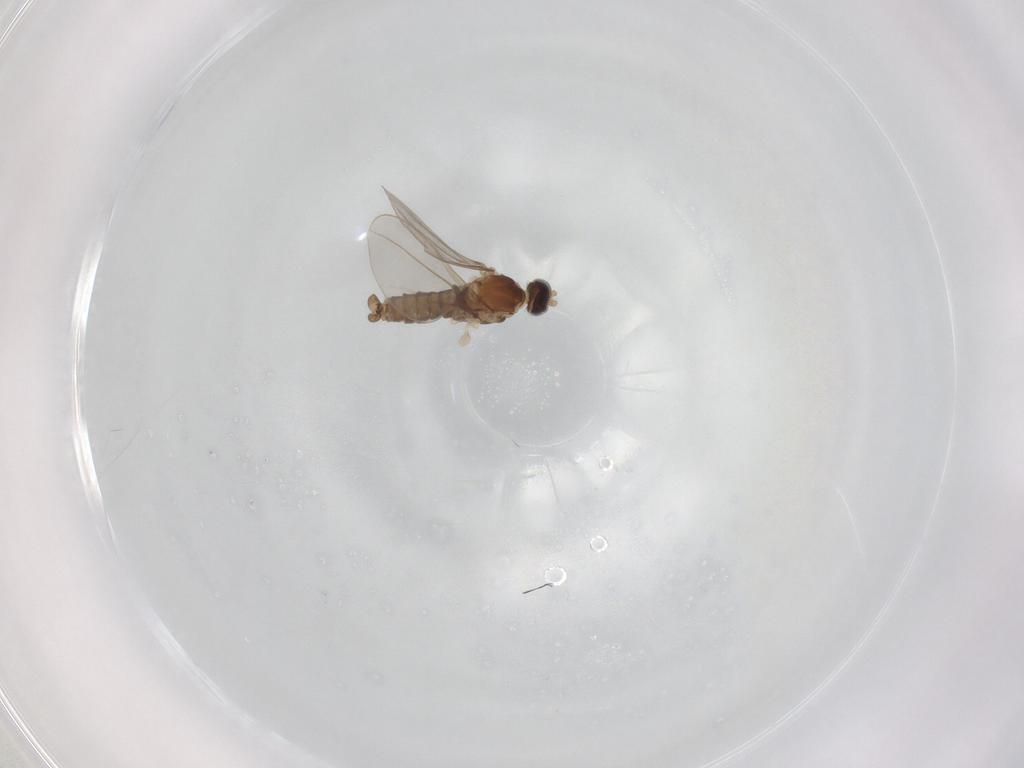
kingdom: Animalia
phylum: Arthropoda
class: Insecta
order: Diptera
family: Cecidomyiidae
